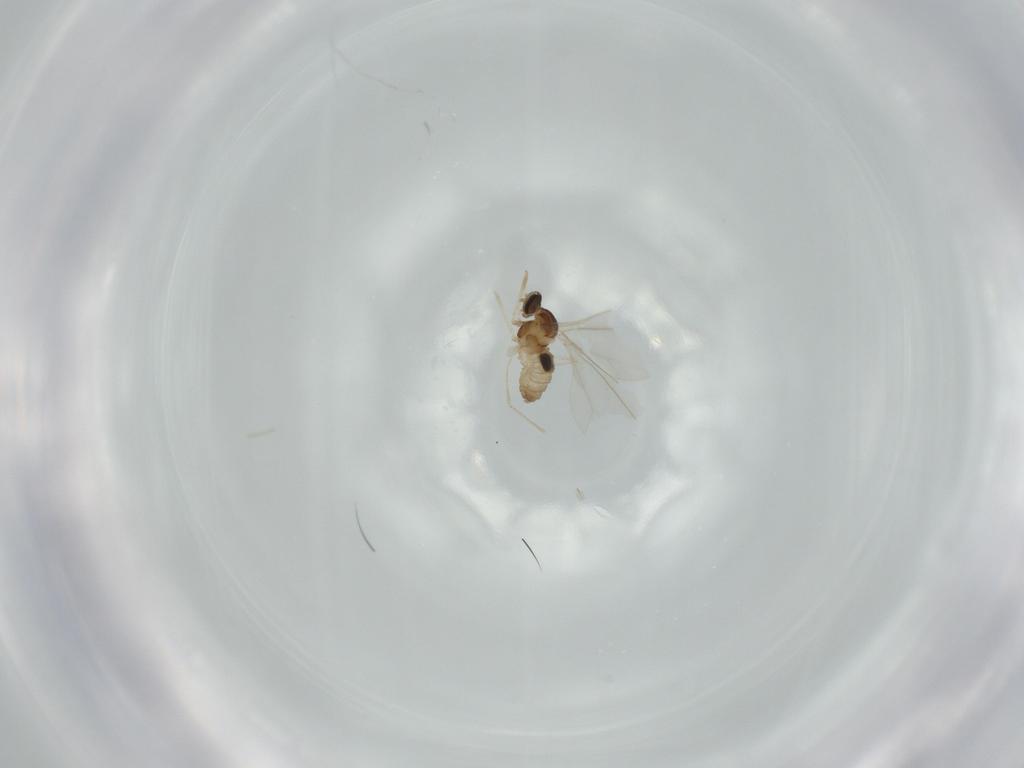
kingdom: Animalia
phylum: Arthropoda
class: Insecta
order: Diptera
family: Cecidomyiidae
